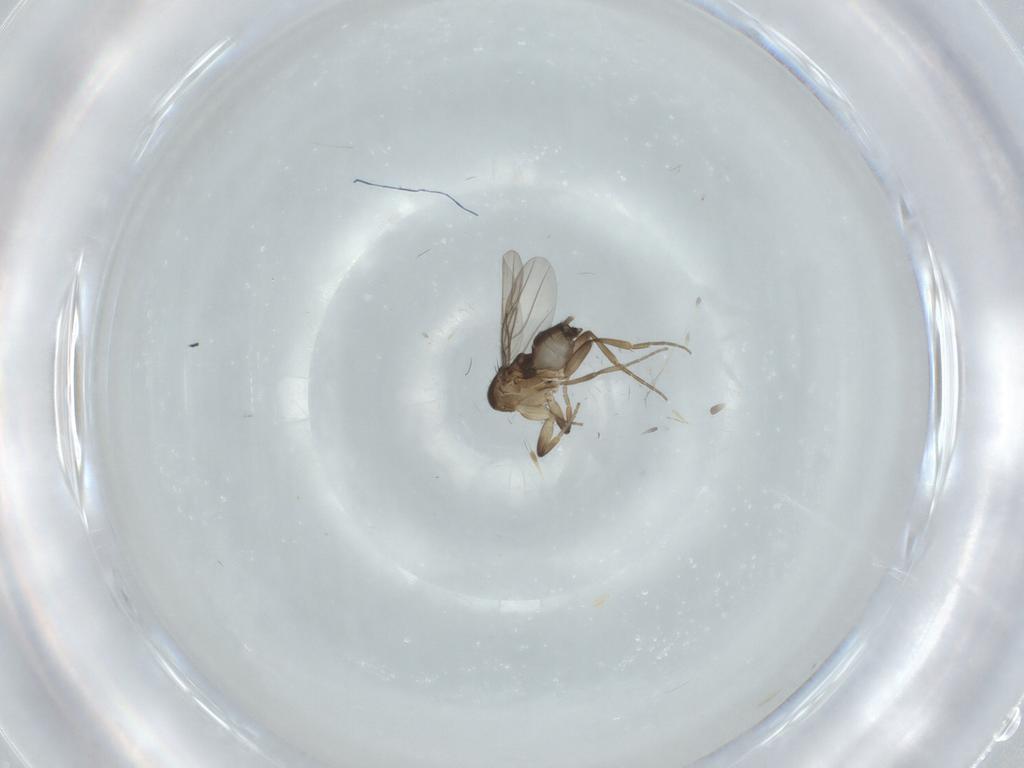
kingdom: Animalia
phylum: Arthropoda
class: Insecta
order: Diptera
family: Phoridae
